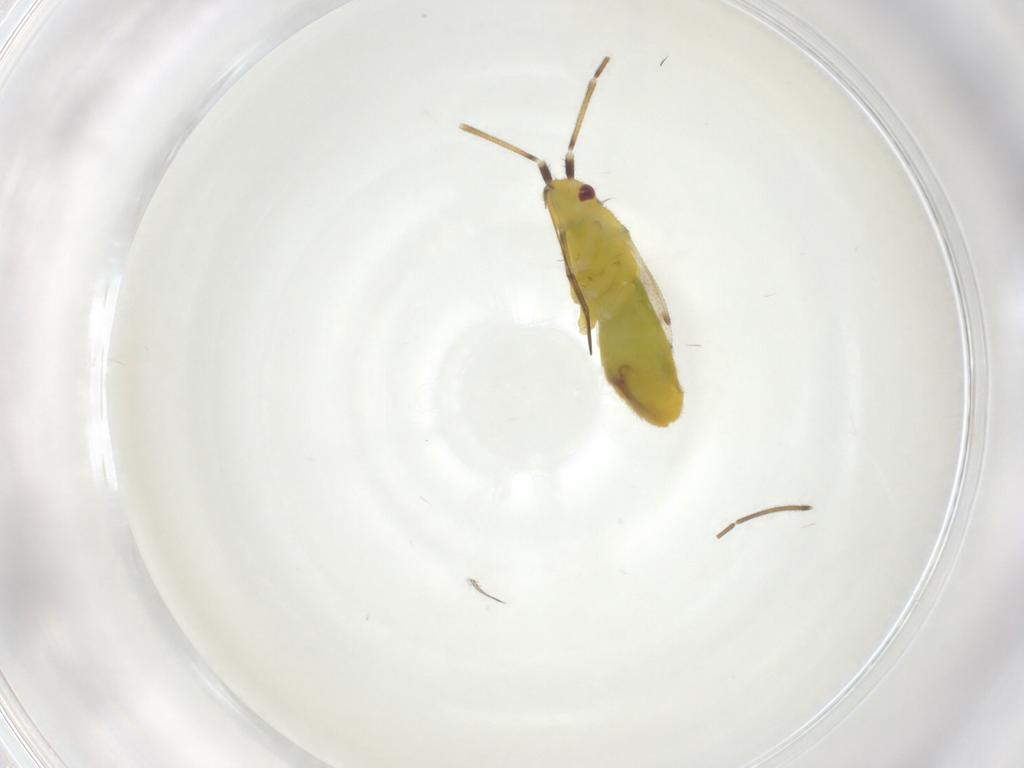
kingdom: Animalia
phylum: Arthropoda
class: Insecta
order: Hemiptera
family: Aleyrodidae
